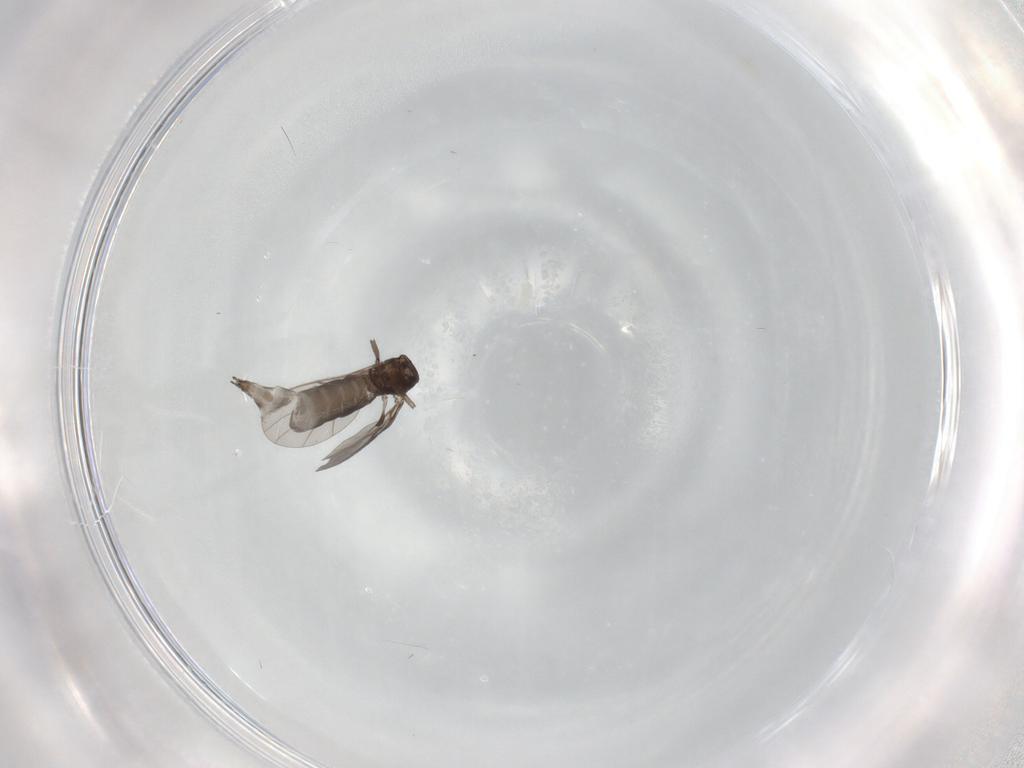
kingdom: Animalia
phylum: Arthropoda
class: Insecta
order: Diptera
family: Sciaridae
